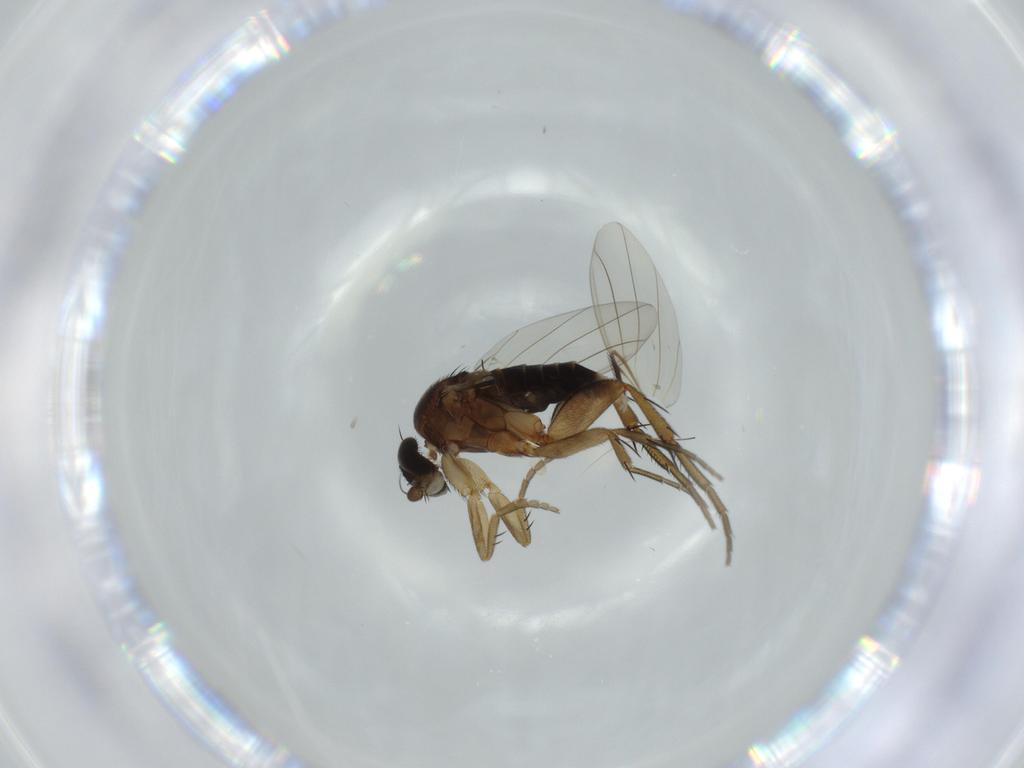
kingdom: Animalia
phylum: Arthropoda
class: Insecta
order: Diptera
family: Phoridae
